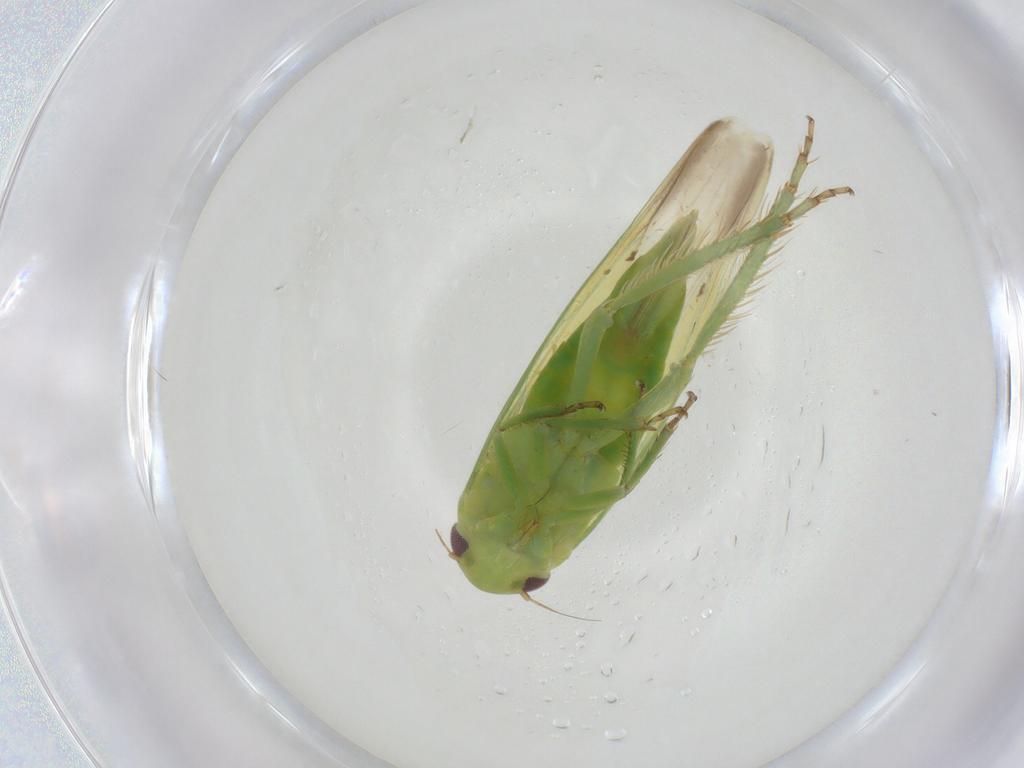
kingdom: Animalia
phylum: Arthropoda
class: Insecta
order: Hemiptera
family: Cicadellidae
